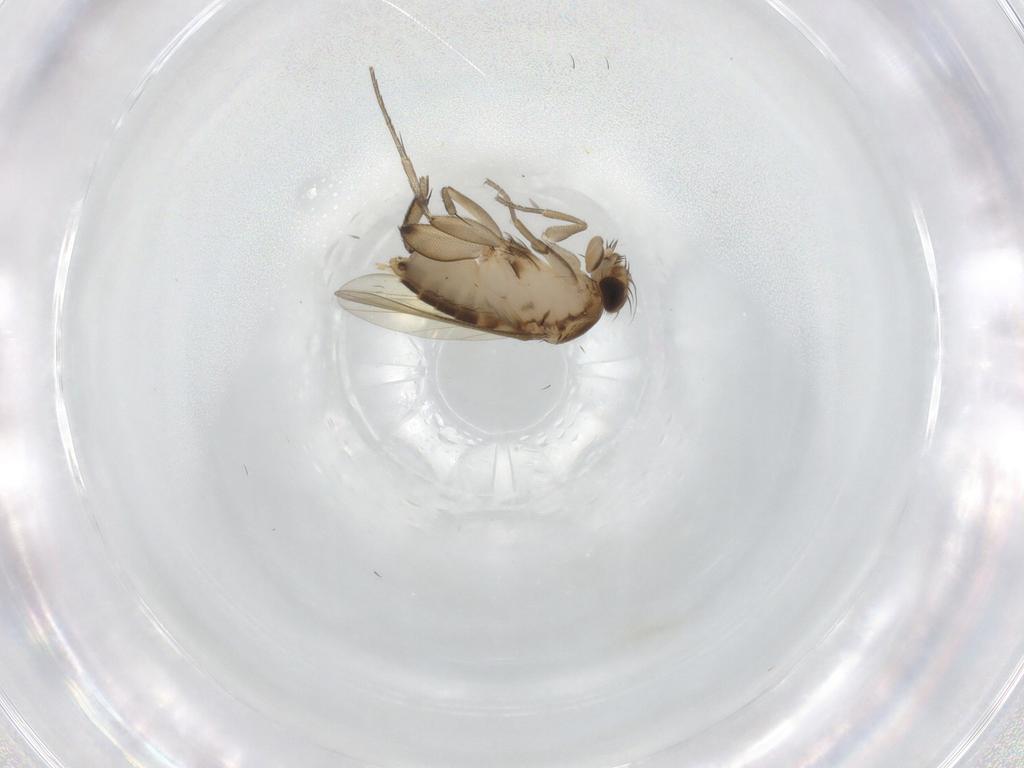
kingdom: Animalia
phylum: Arthropoda
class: Insecta
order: Diptera
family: Phoridae
